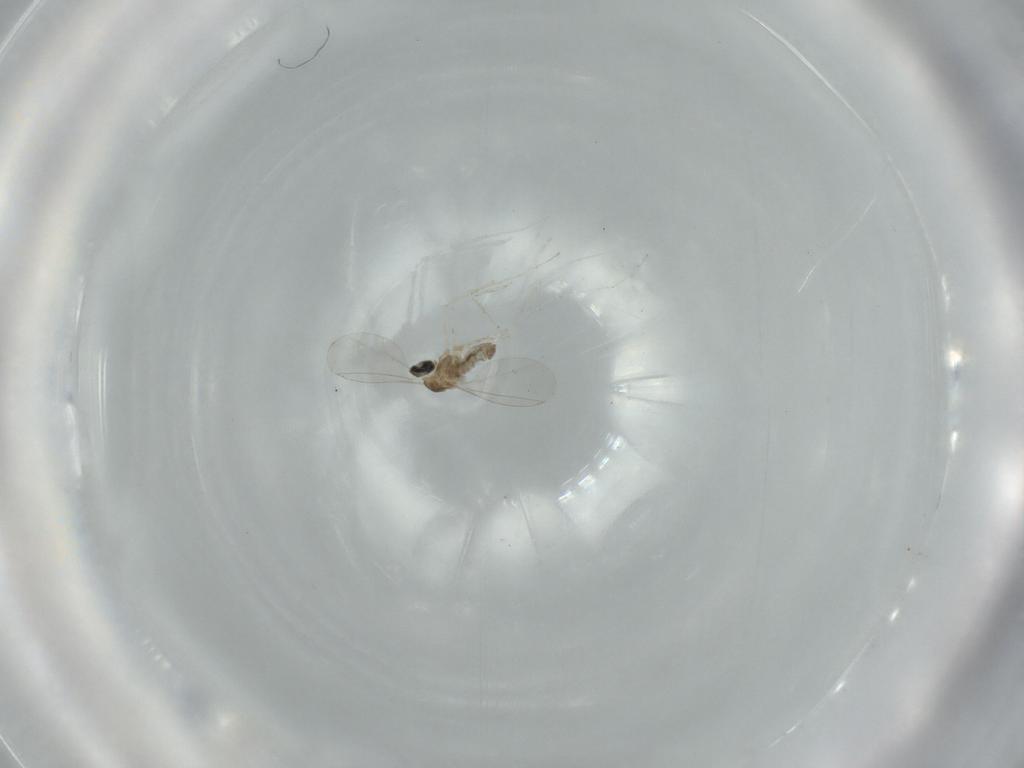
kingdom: Animalia
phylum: Arthropoda
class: Insecta
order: Diptera
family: Cecidomyiidae
